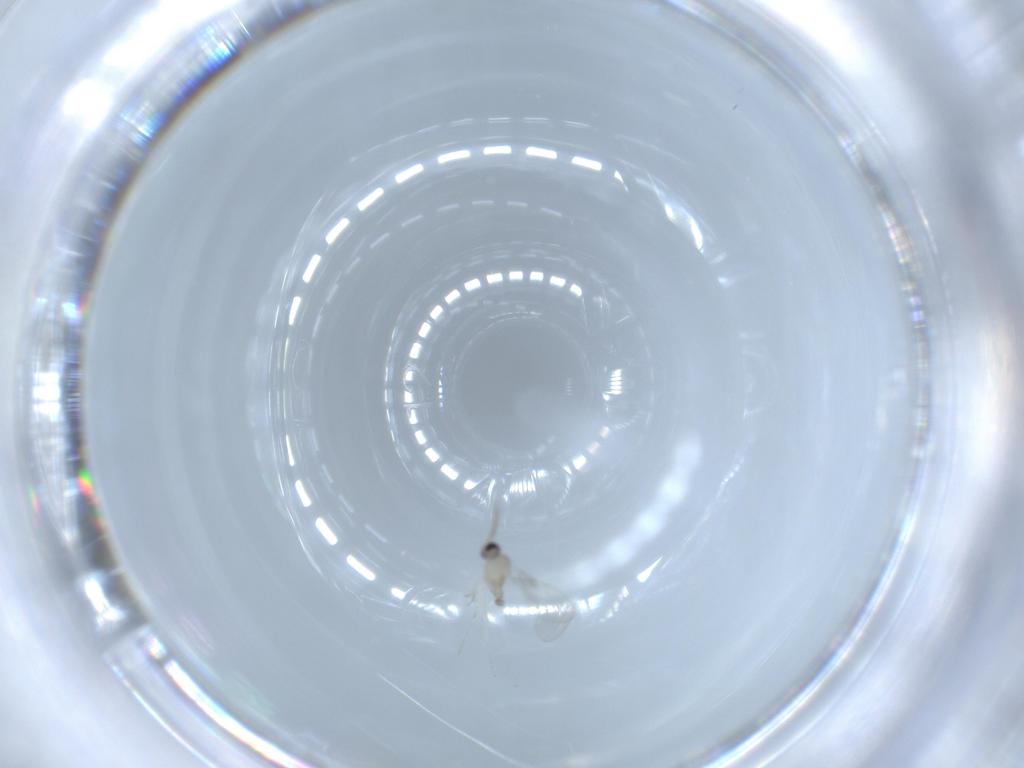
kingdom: Animalia
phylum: Arthropoda
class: Insecta
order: Diptera
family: Cecidomyiidae
